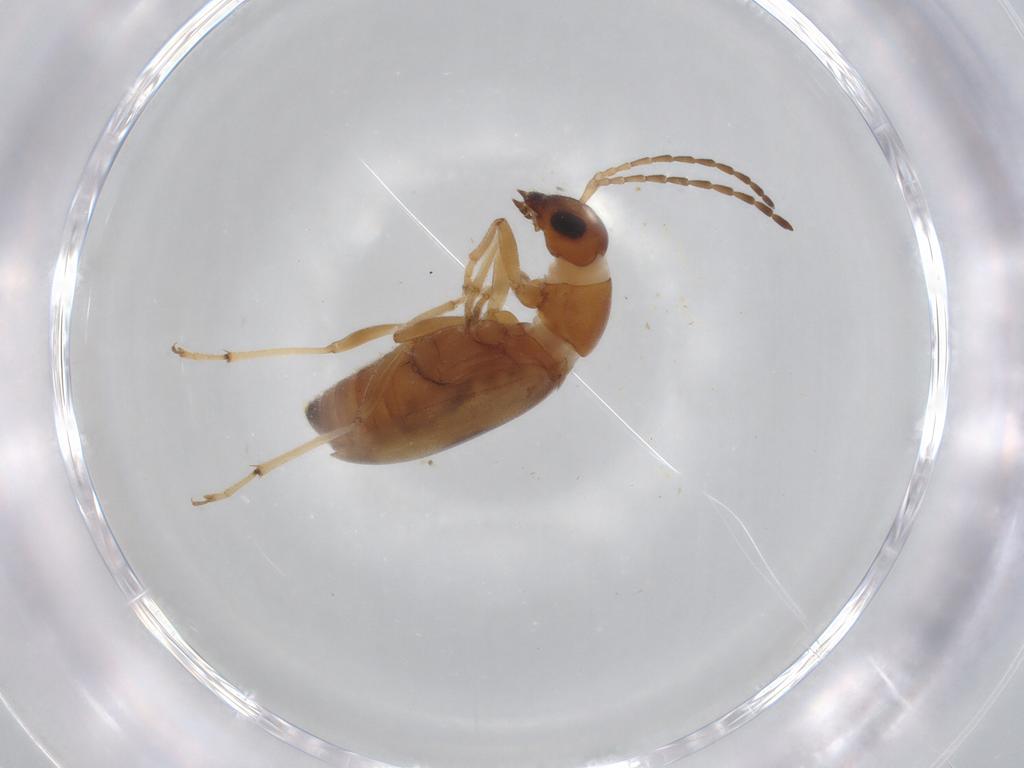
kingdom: Animalia
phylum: Arthropoda
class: Insecta
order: Coleoptera
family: Chrysomelidae
